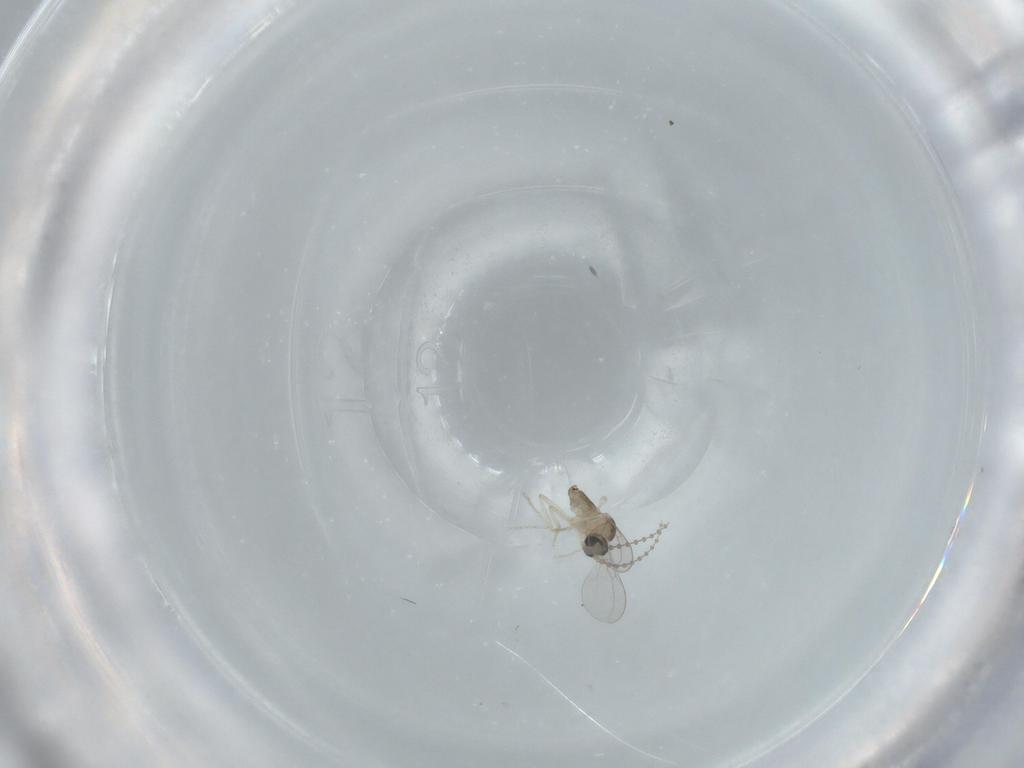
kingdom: Animalia
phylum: Arthropoda
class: Insecta
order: Diptera
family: Cecidomyiidae
